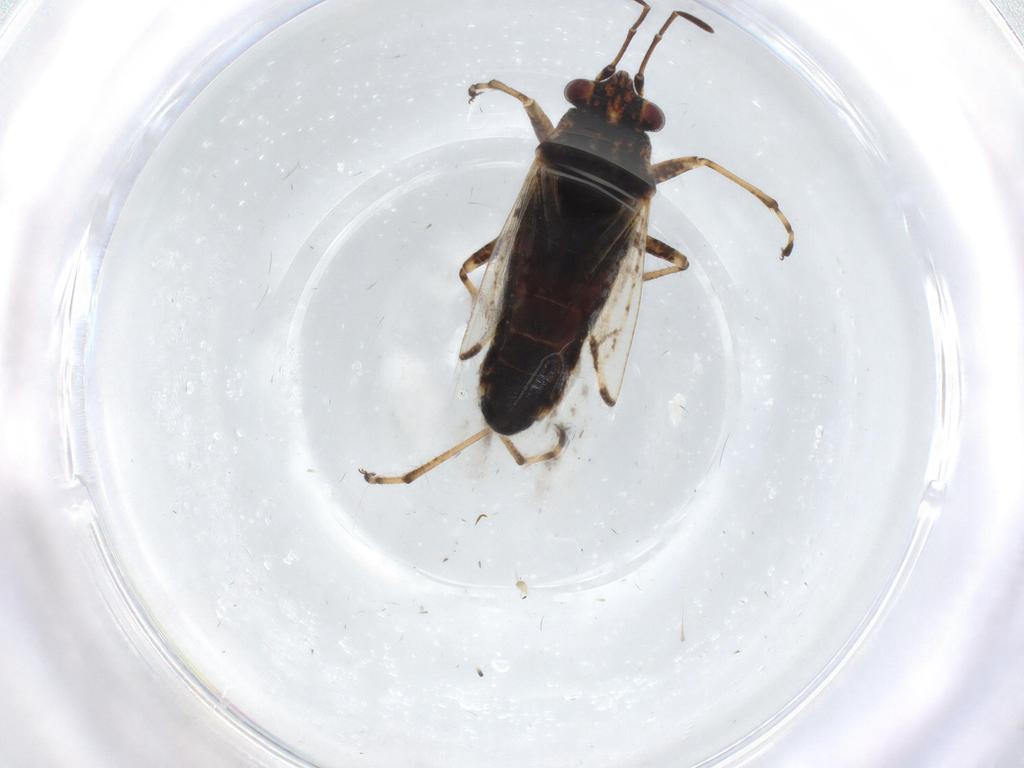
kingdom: Animalia
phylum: Arthropoda
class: Insecta
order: Hemiptera
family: Lygaeidae
